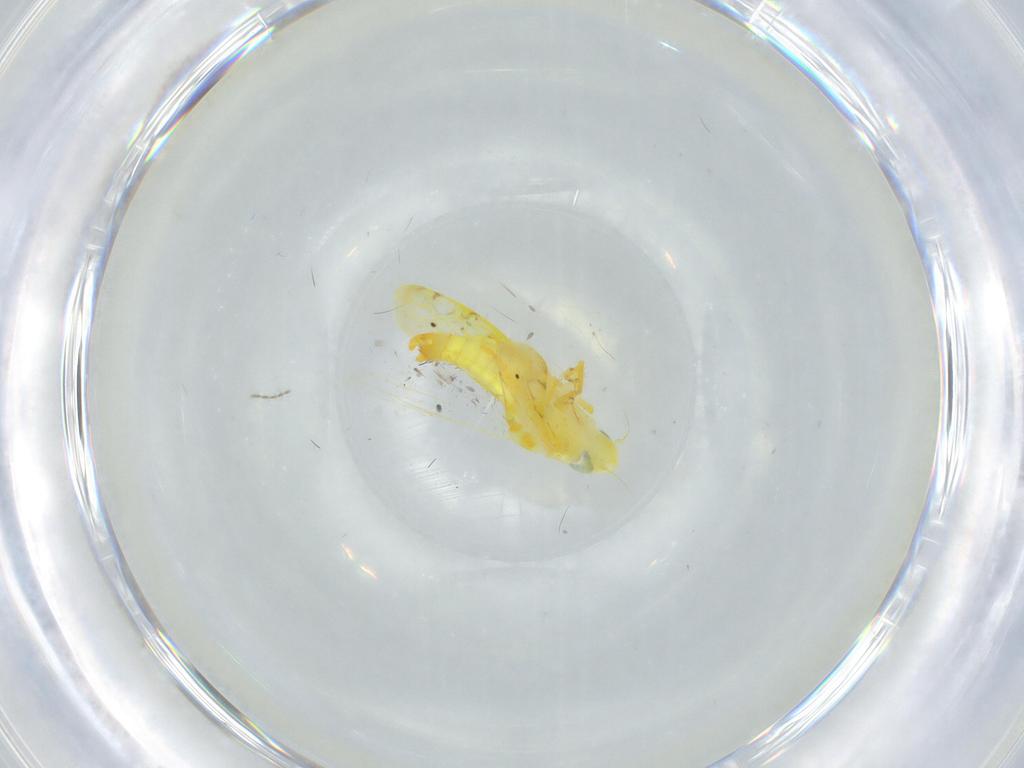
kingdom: Animalia
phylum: Arthropoda
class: Insecta
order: Hemiptera
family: Cicadellidae
